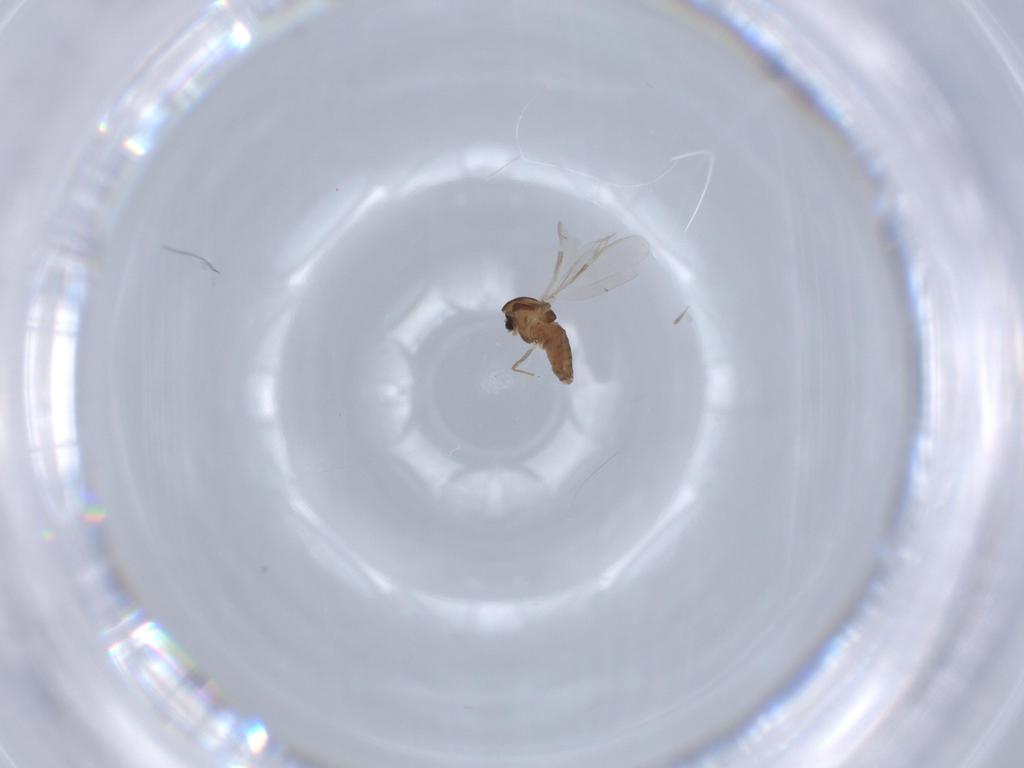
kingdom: Animalia
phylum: Arthropoda
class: Insecta
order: Diptera
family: Chironomidae
